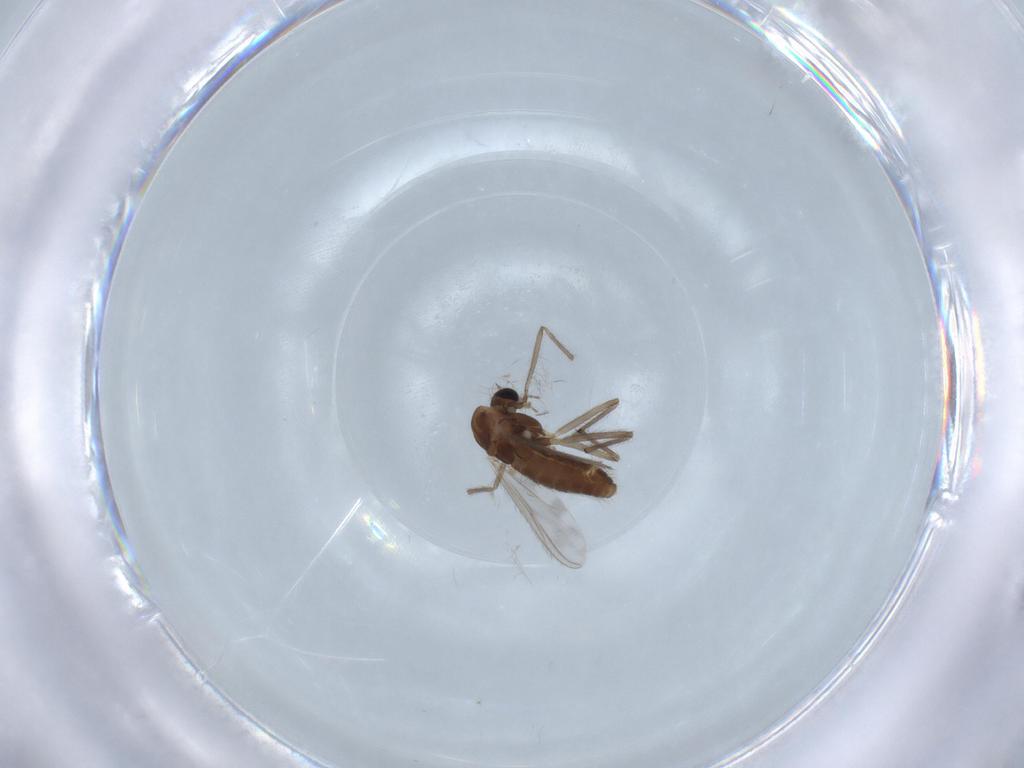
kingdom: Animalia
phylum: Arthropoda
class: Insecta
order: Diptera
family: Chironomidae
